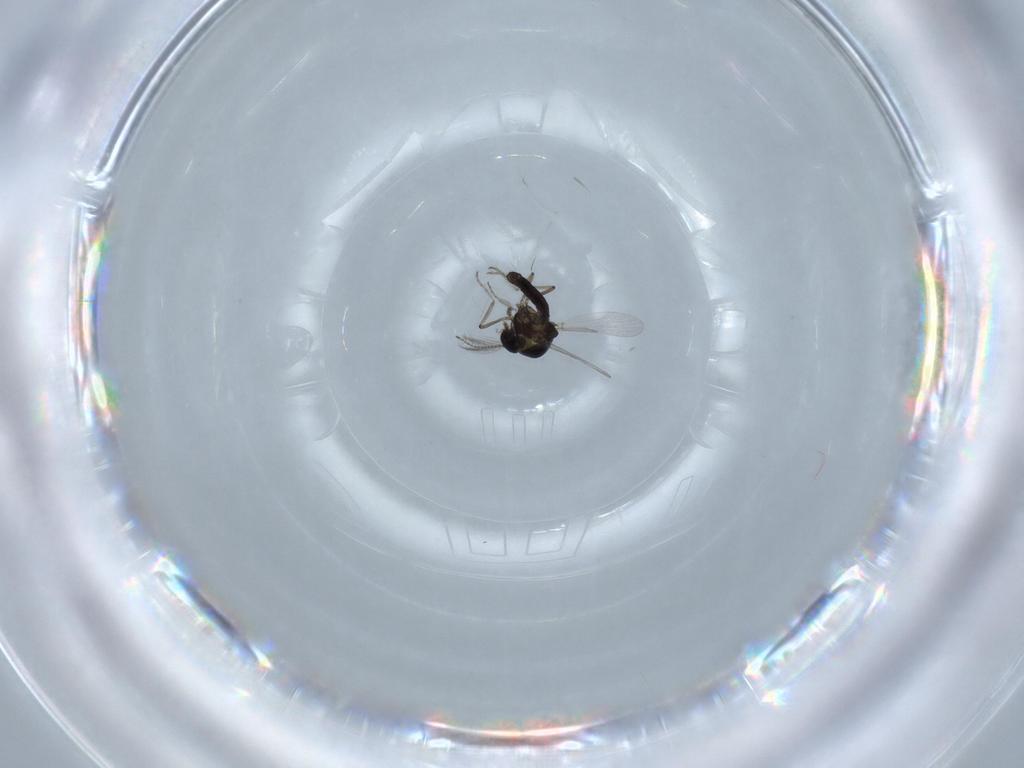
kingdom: Animalia
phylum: Arthropoda
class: Insecta
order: Diptera
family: Ceratopogonidae
